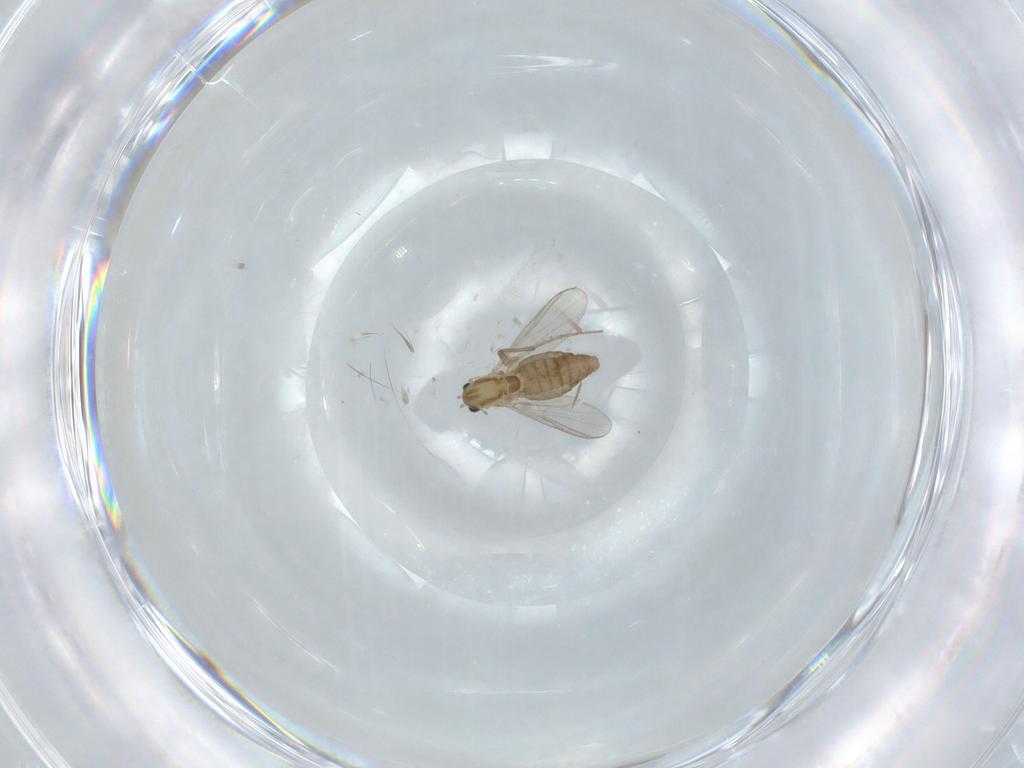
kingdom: Animalia
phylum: Arthropoda
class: Insecta
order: Diptera
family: Chironomidae
